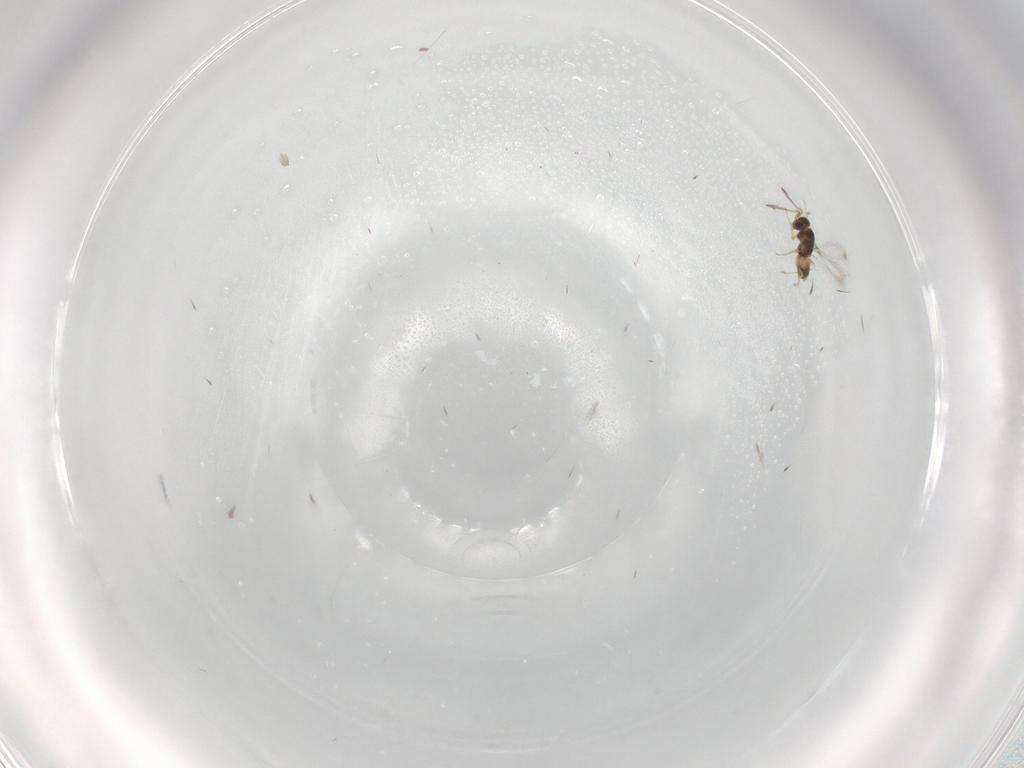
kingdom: Animalia
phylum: Arthropoda
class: Insecta
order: Hymenoptera
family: Mymaridae
